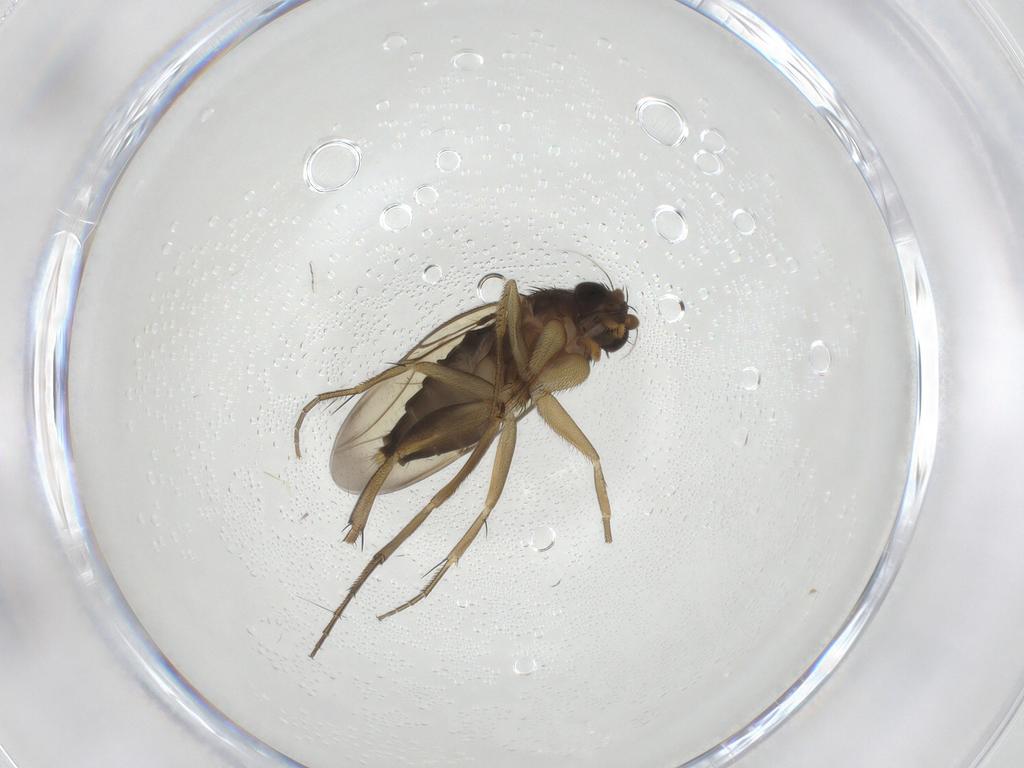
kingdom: Animalia
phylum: Arthropoda
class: Insecta
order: Diptera
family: Phoridae
